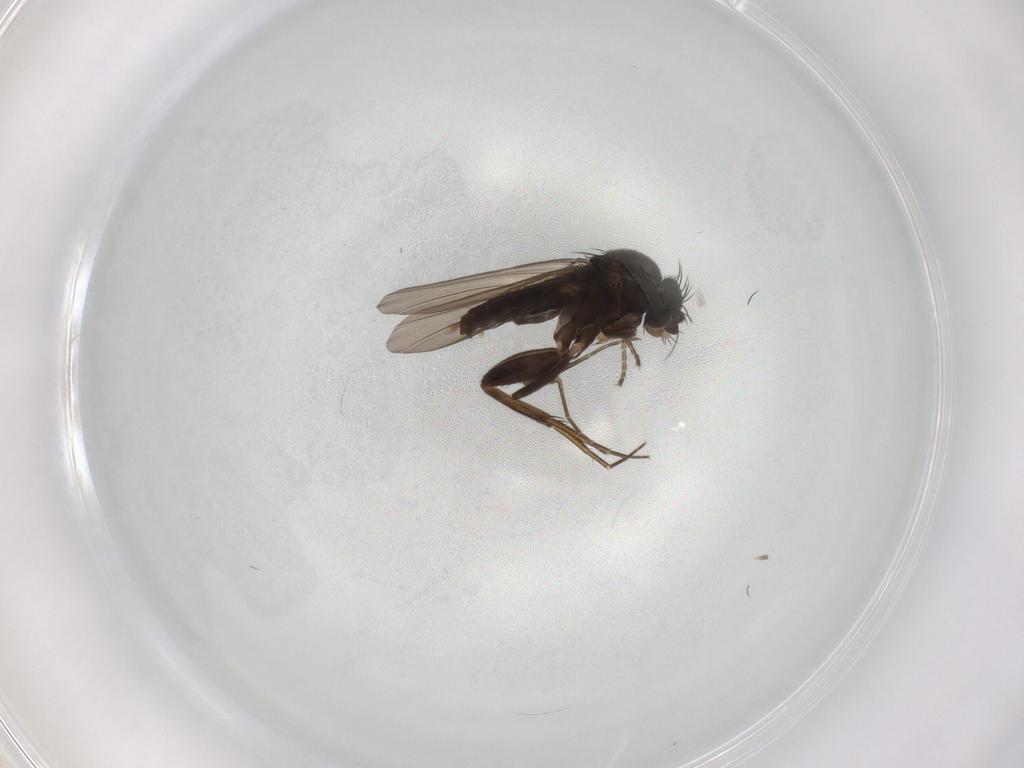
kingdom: Animalia
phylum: Arthropoda
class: Insecta
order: Diptera
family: Phoridae
